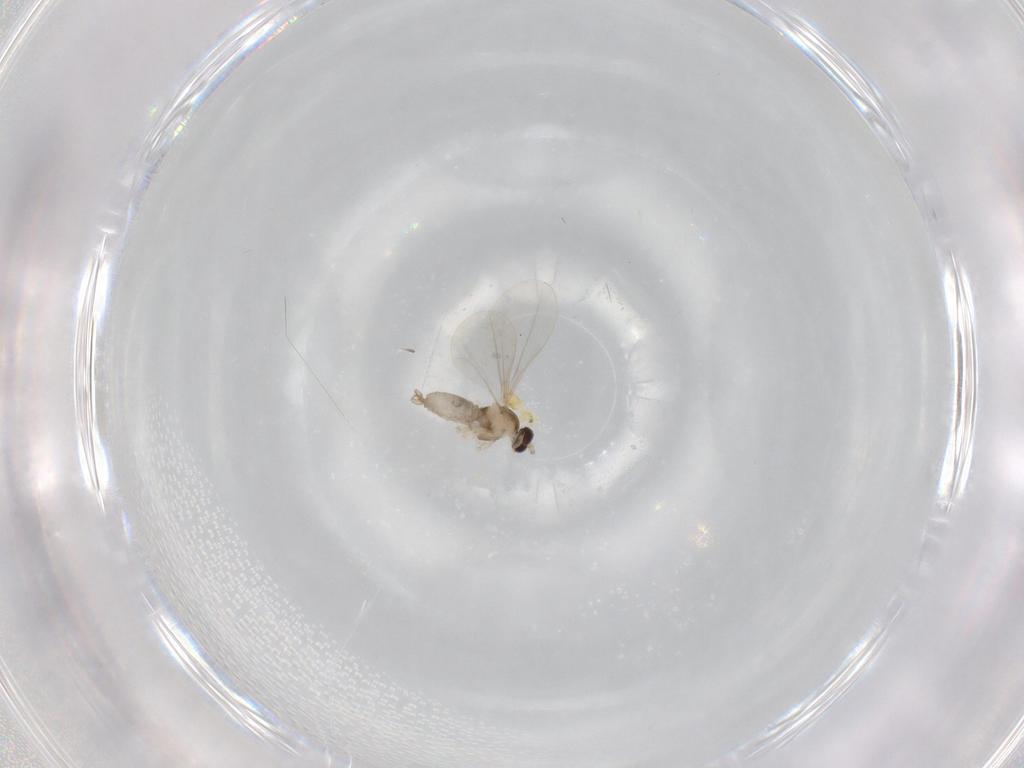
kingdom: Animalia
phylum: Arthropoda
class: Insecta
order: Diptera
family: Cecidomyiidae
